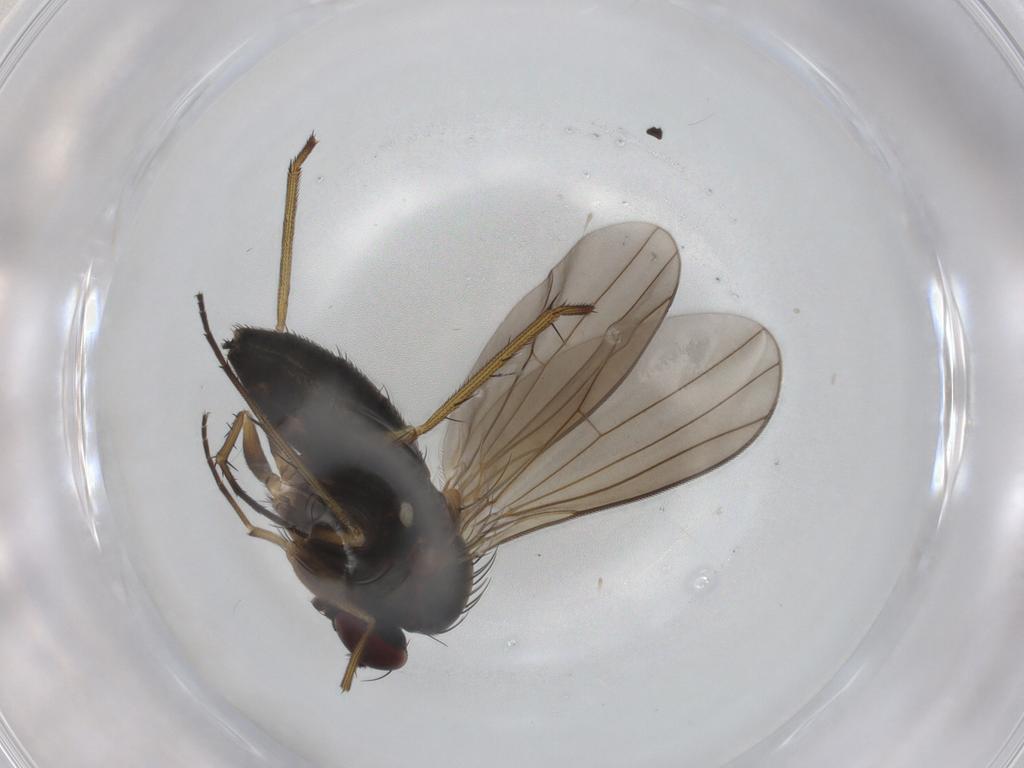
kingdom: Animalia
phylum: Arthropoda
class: Insecta
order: Diptera
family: Dolichopodidae
